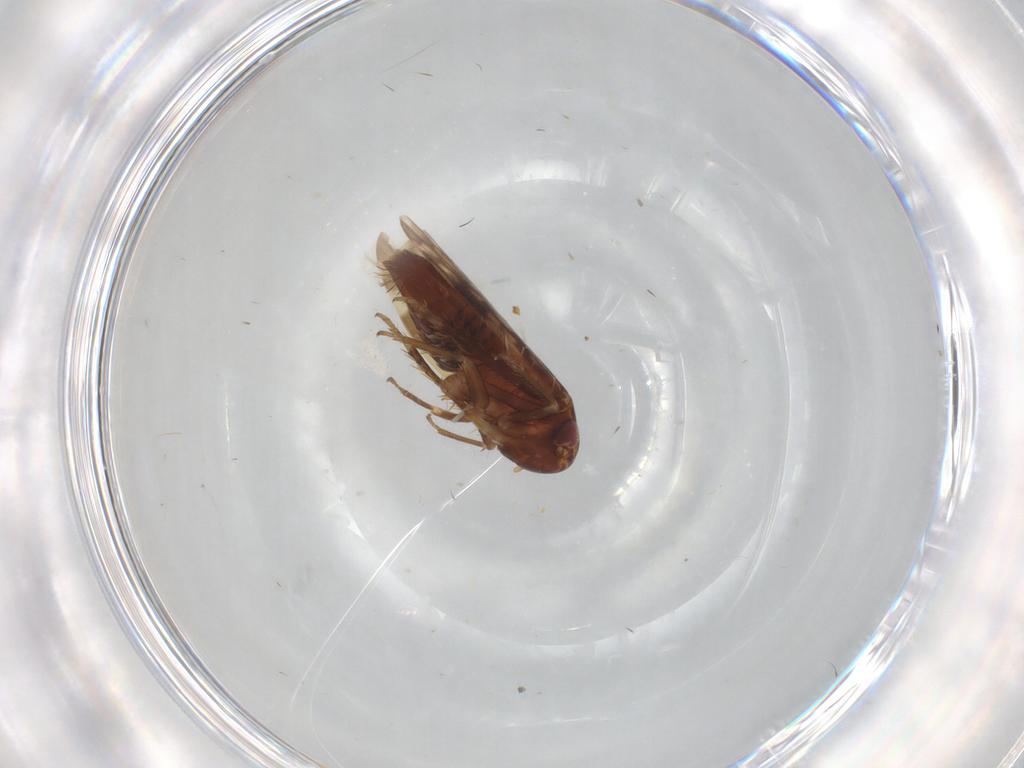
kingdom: Animalia
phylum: Arthropoda
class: Insecta
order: Hemiptera
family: Cicadellidae
